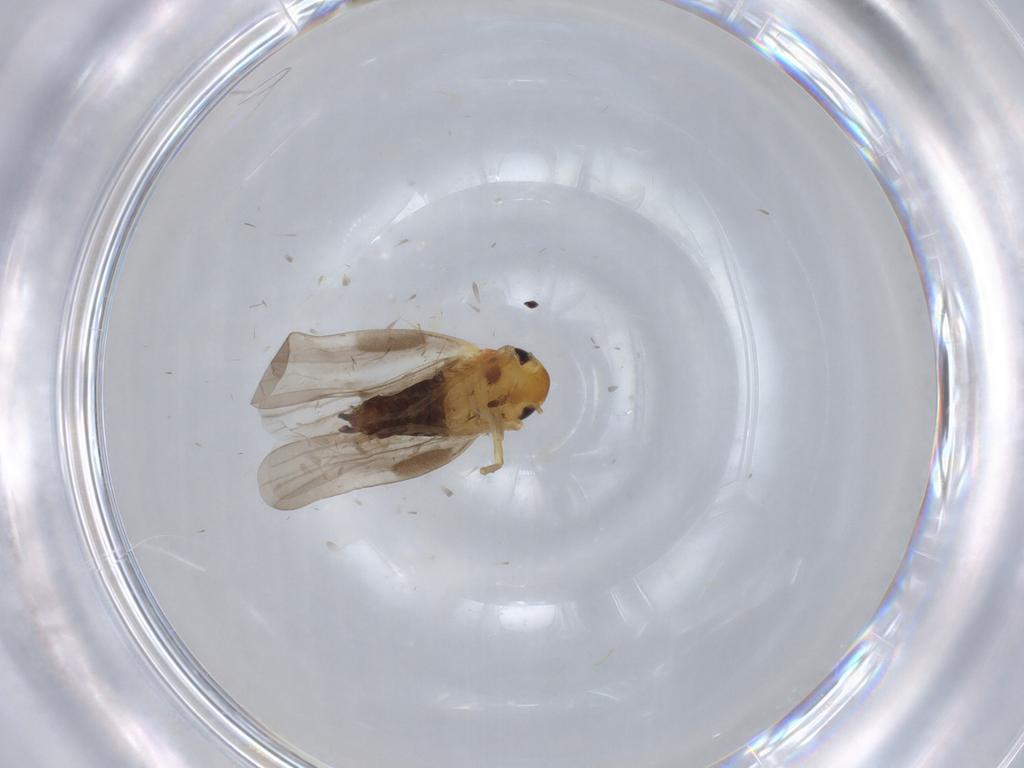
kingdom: Animalia
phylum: Arthropoda
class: Insecta
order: Hemiptera
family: Cicadellidae
